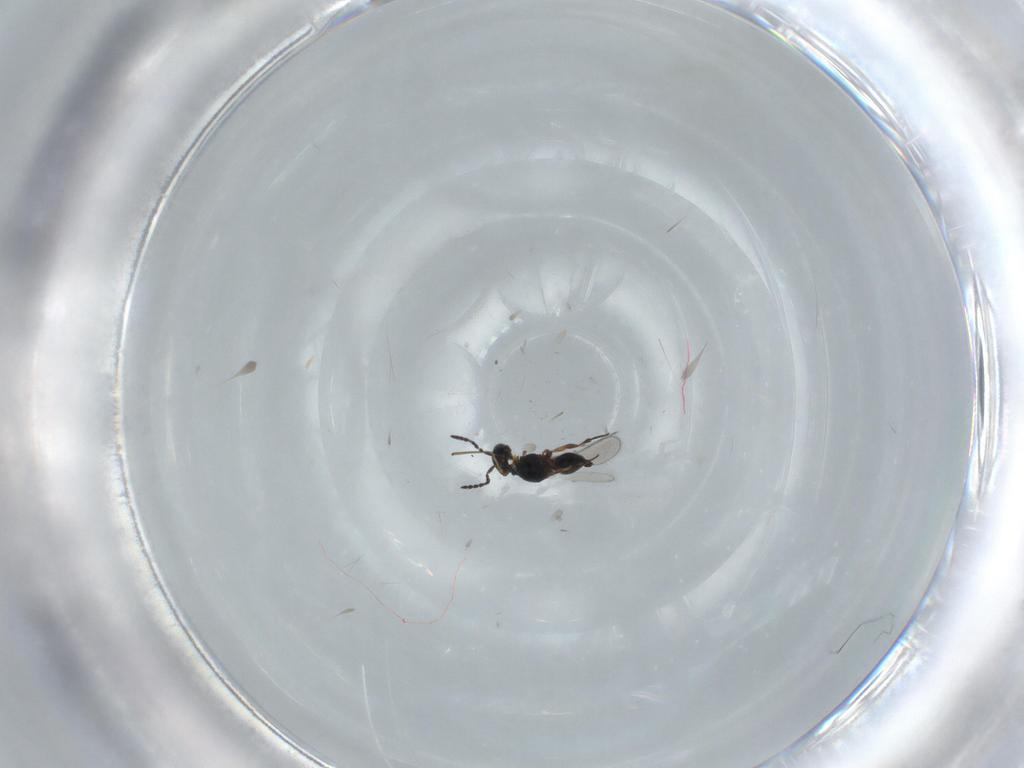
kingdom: Animalia
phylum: Arthropoda
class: Insecta
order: Hymenoptera
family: Platygastridae
